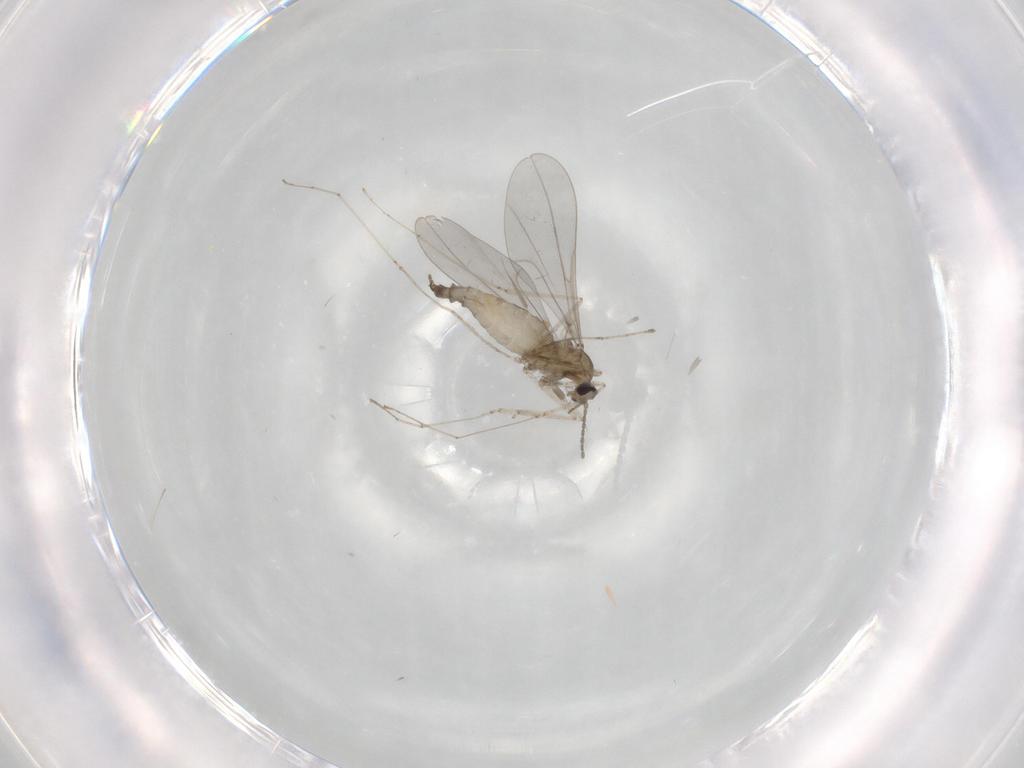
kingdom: Animalia
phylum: Arthropoda
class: Insecta
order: Diptera
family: Cecidomyiidae
